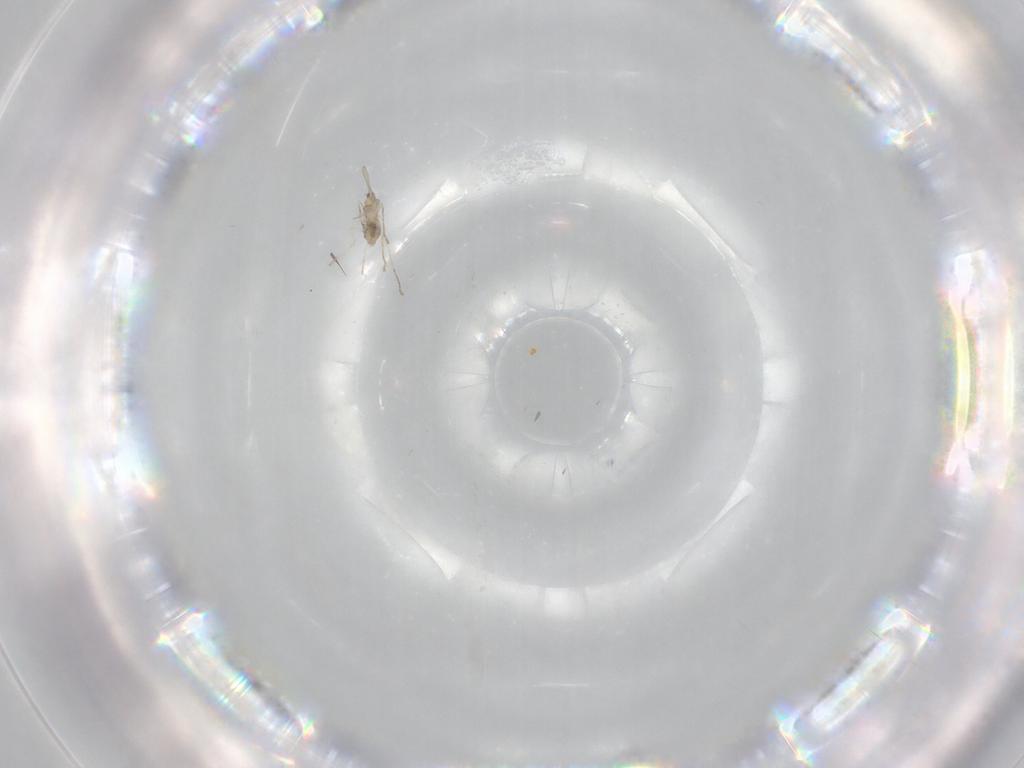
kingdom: Animalia
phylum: Arthropoda
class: Insecta
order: Diptera
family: Cecidomyiidae
